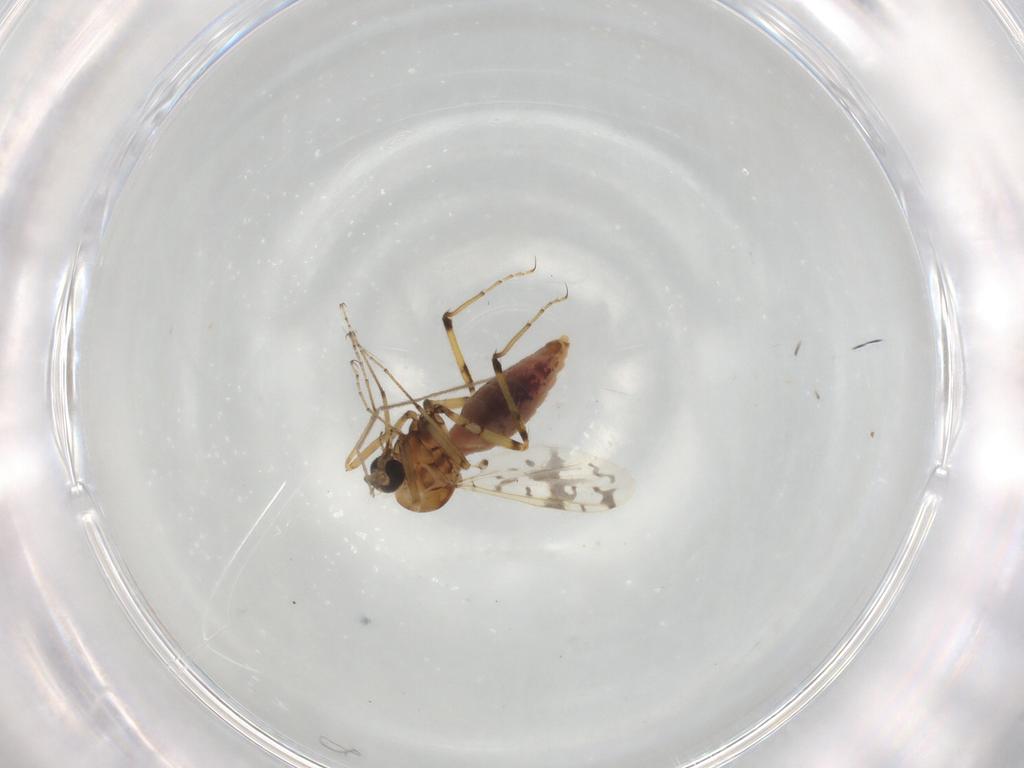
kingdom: Animalia
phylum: Arthropoda
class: Insecta
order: Diptera
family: Ceratopogonidae
